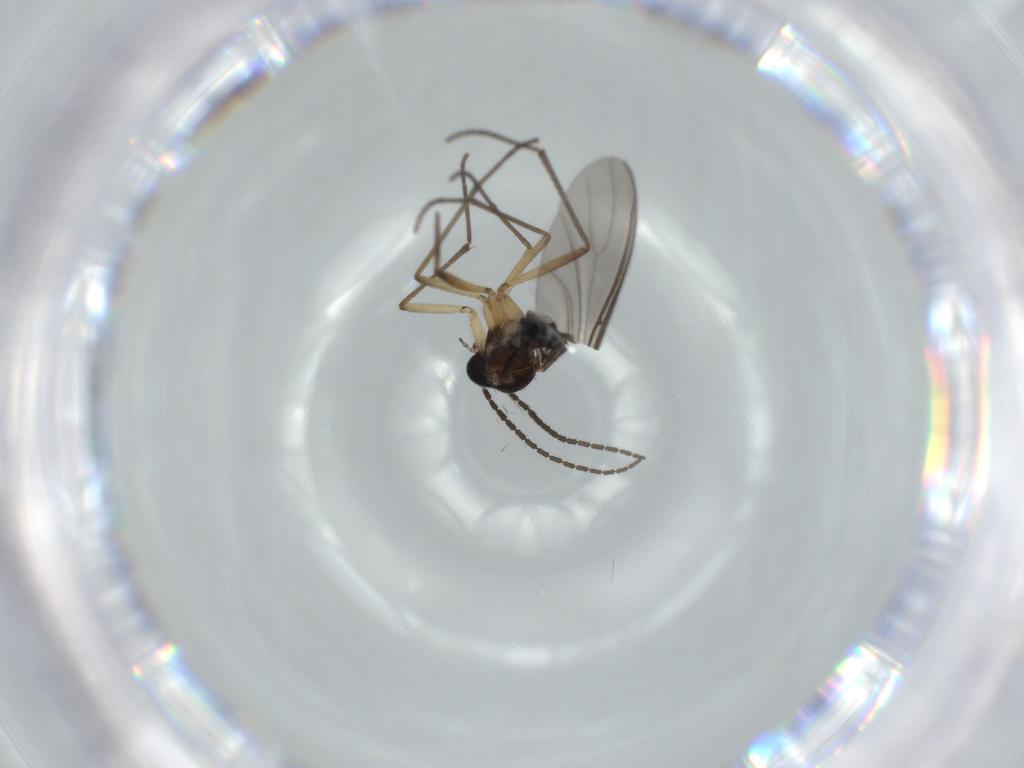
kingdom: Animalia
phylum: Arthropoda
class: Insecta
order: Diptera
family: Sciaridae
